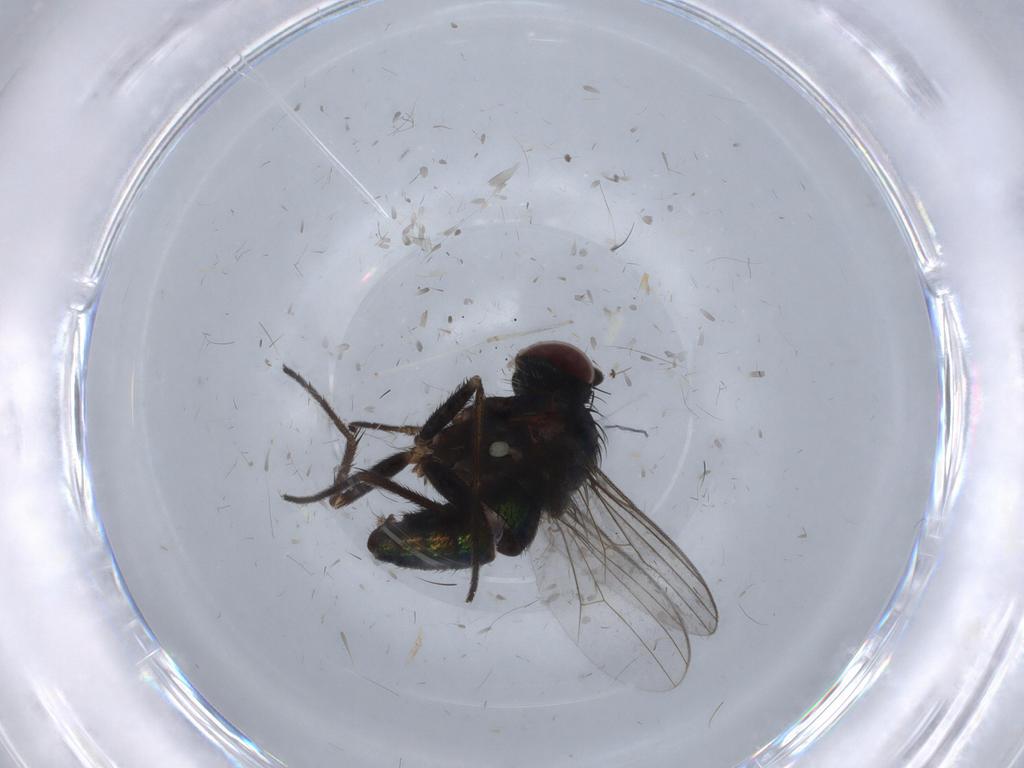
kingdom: Animalia
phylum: Arthropoda
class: Insecta
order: Diptera
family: Dolichopodidae
